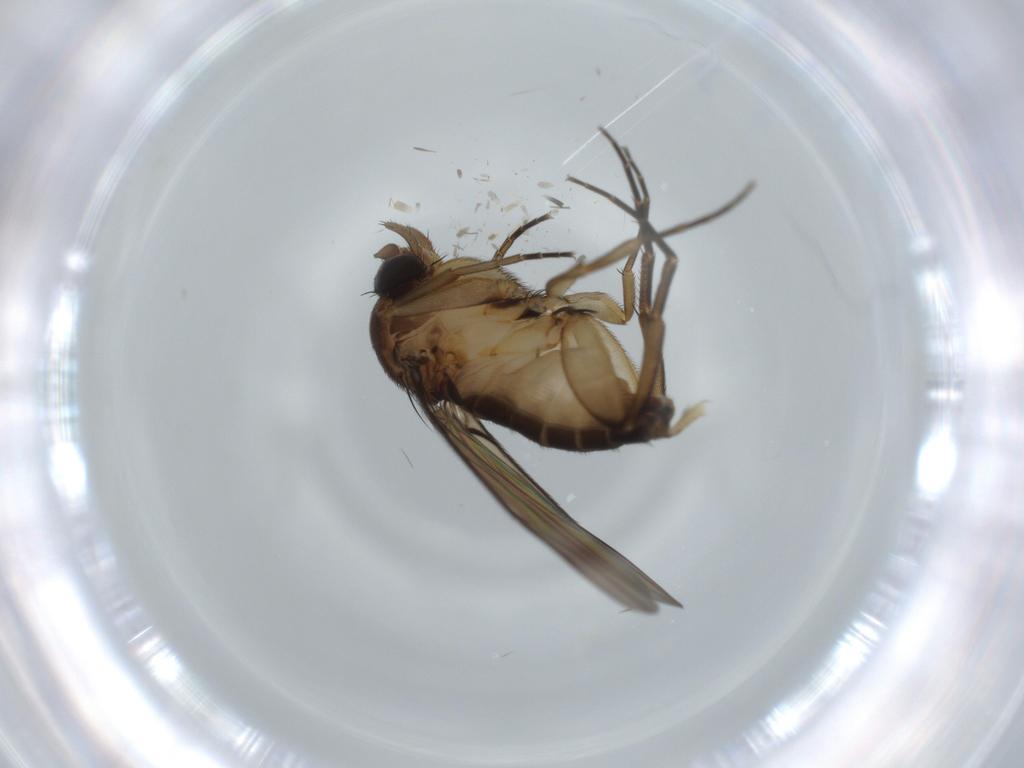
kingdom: Animalia
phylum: Arthropoda
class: Insecta
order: Diptera
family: Sciaridae
